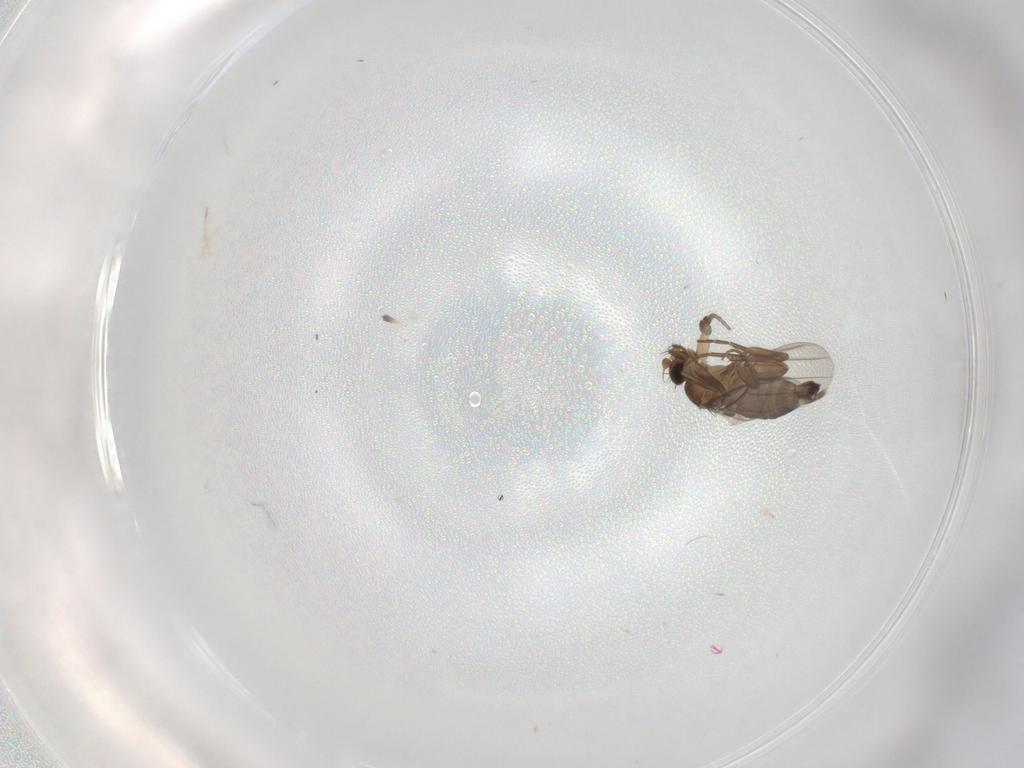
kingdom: Animalia
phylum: Arthropoda
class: Insecta
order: Diptera
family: Phoridae
